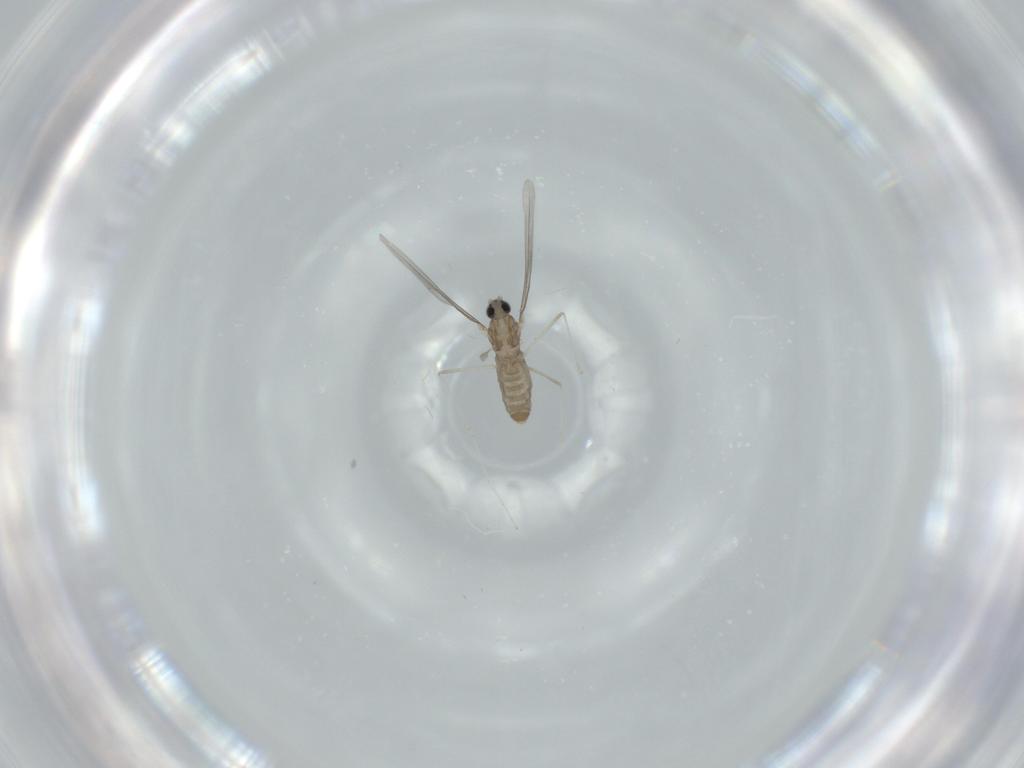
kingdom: Animalia
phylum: Arthropoda
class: Insecta
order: Diptera
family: Cecidomyiidae
